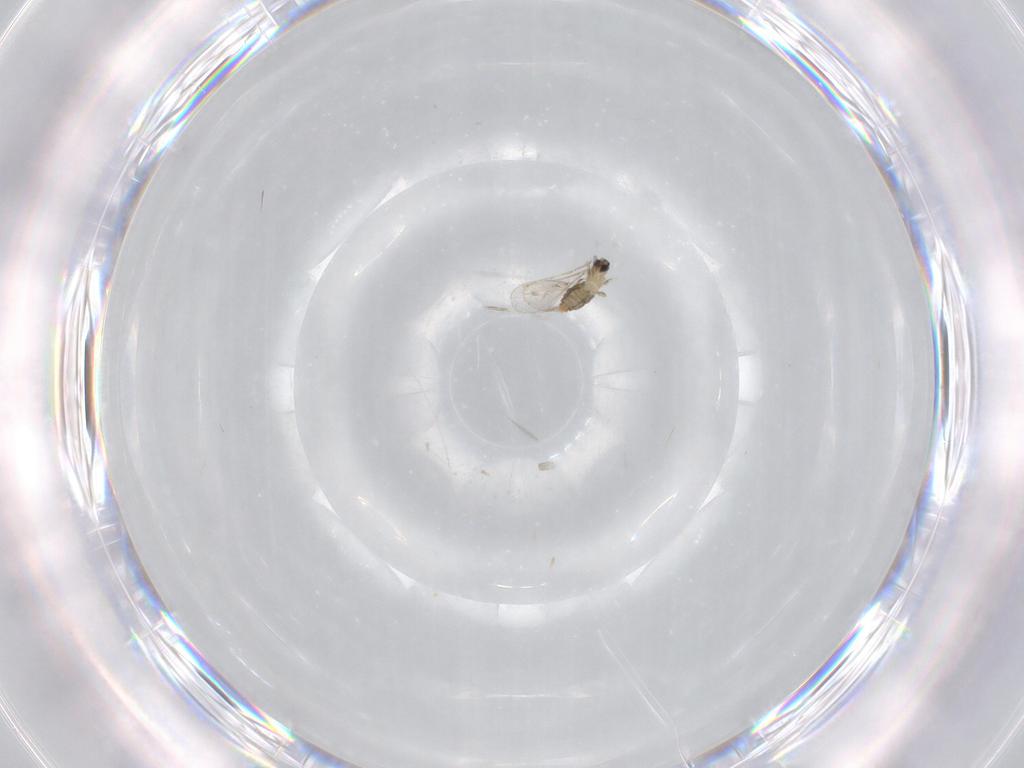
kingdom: Animalia
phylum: Arthropoda
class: Insecta
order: Diptera
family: Cecidomyiidae
